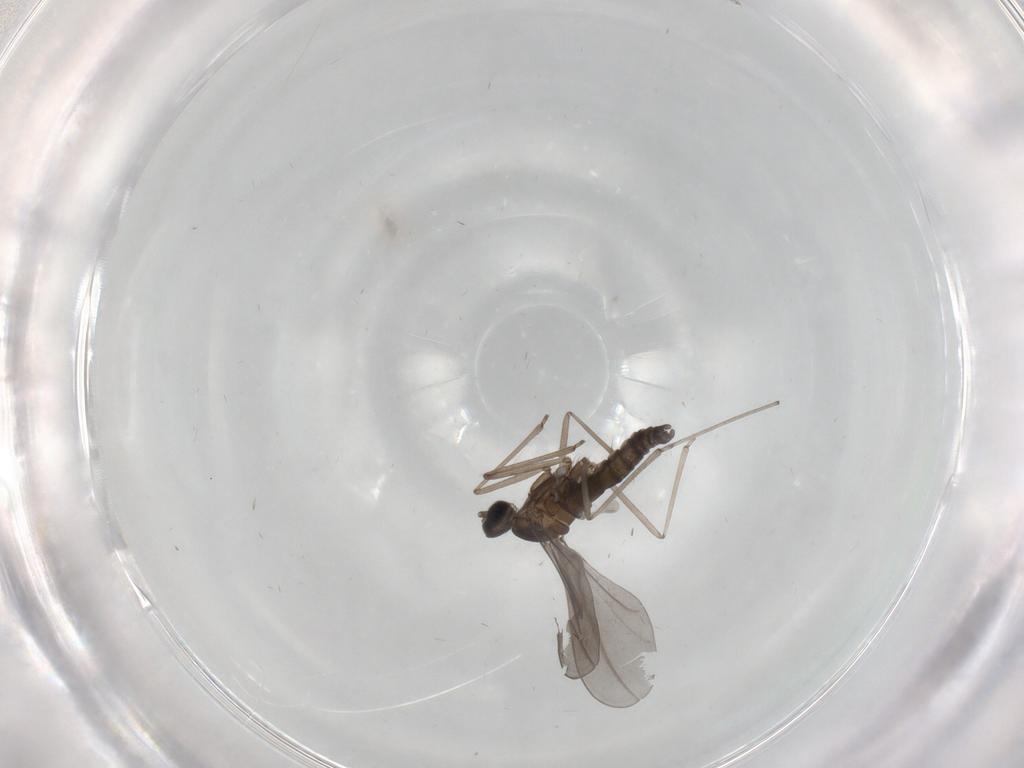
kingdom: Animalia
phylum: Arthropoda
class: Insecta
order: Diptera
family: Cecidomyiidae
